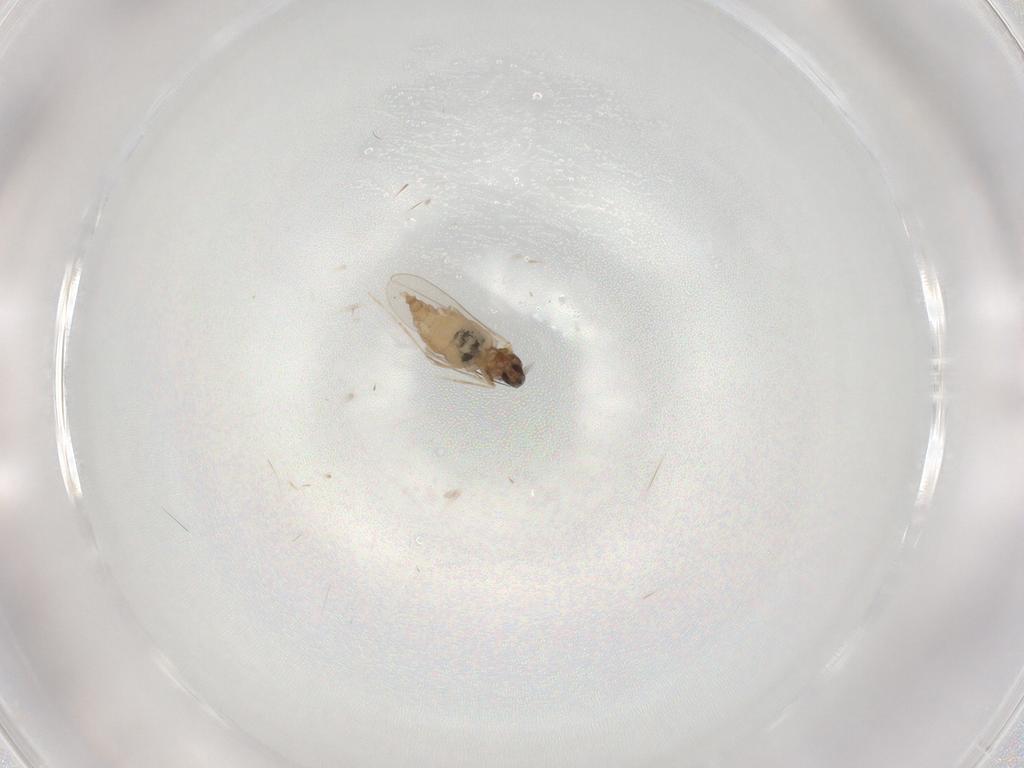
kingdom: Animalia
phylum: Arthropoda
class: Insecta
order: Diptera
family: Cecidomyiidae
